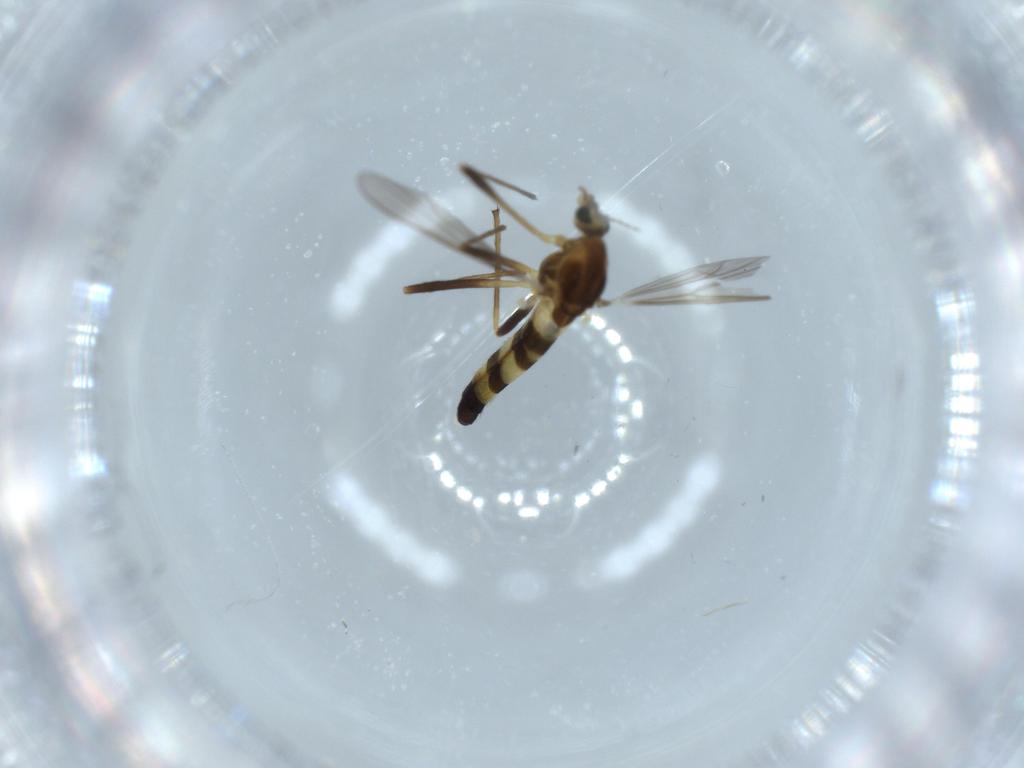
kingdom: Animalia
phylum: Arthropoda
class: Insecta
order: Diptera
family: Chironomidae
